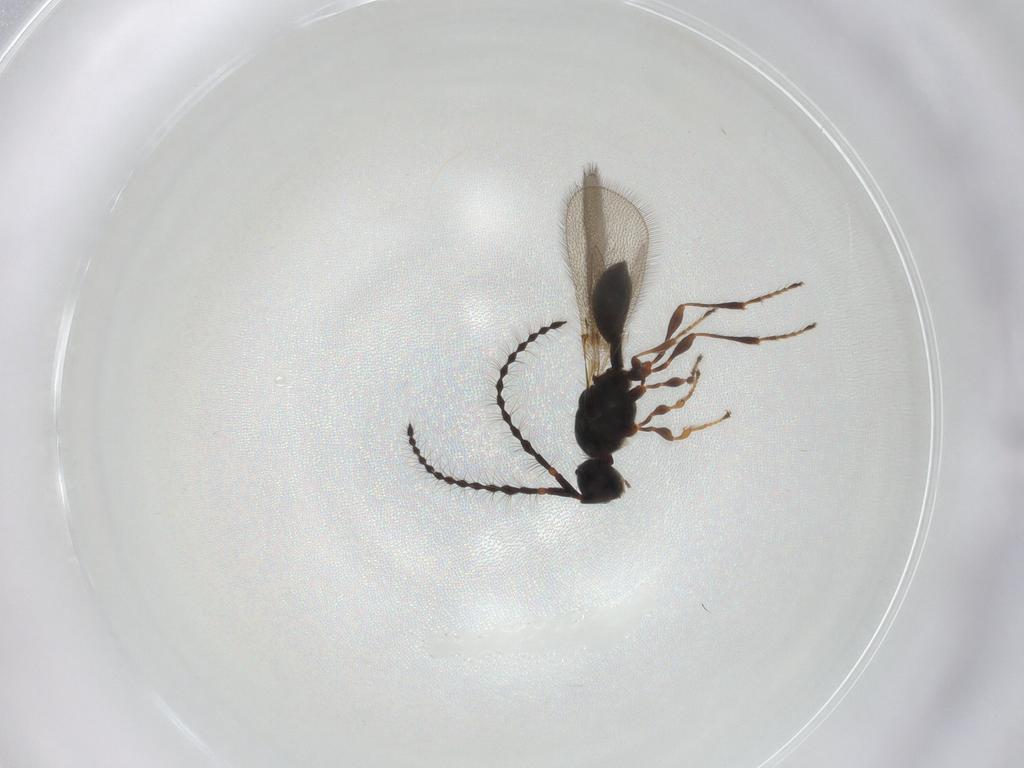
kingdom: Animalia
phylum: Arthropoda
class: Insecta
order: Hymenoptera
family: Diapriidae
